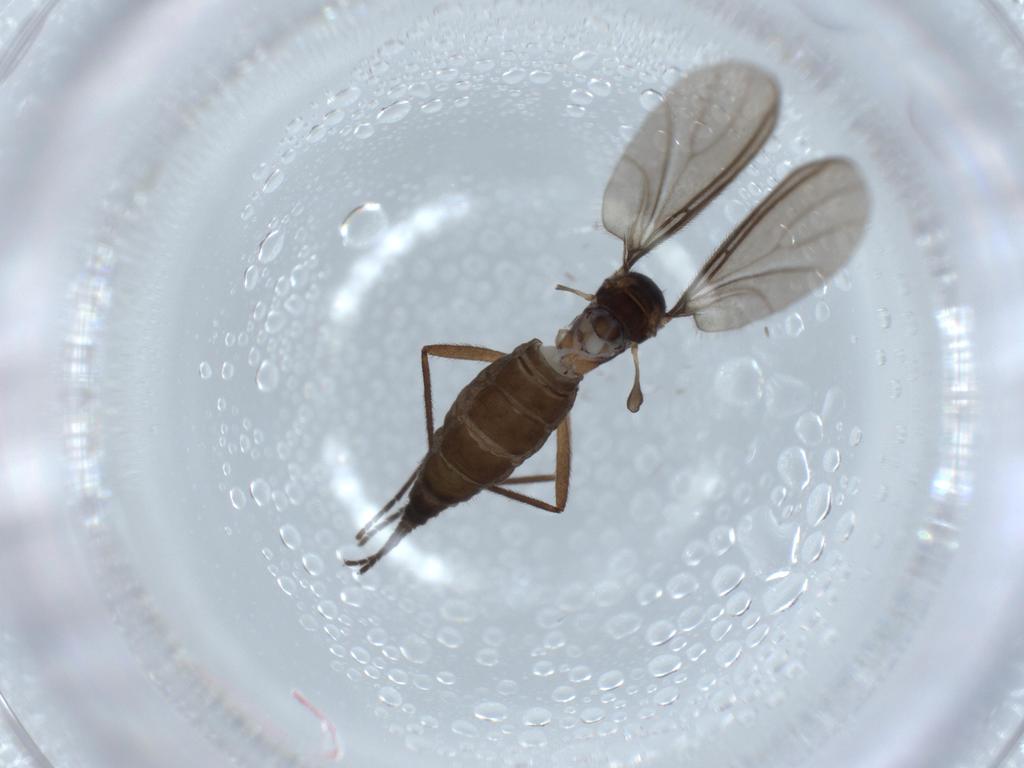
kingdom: Animalia
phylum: Arthropoda
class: Insecta
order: Diptera
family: Sciaridae
